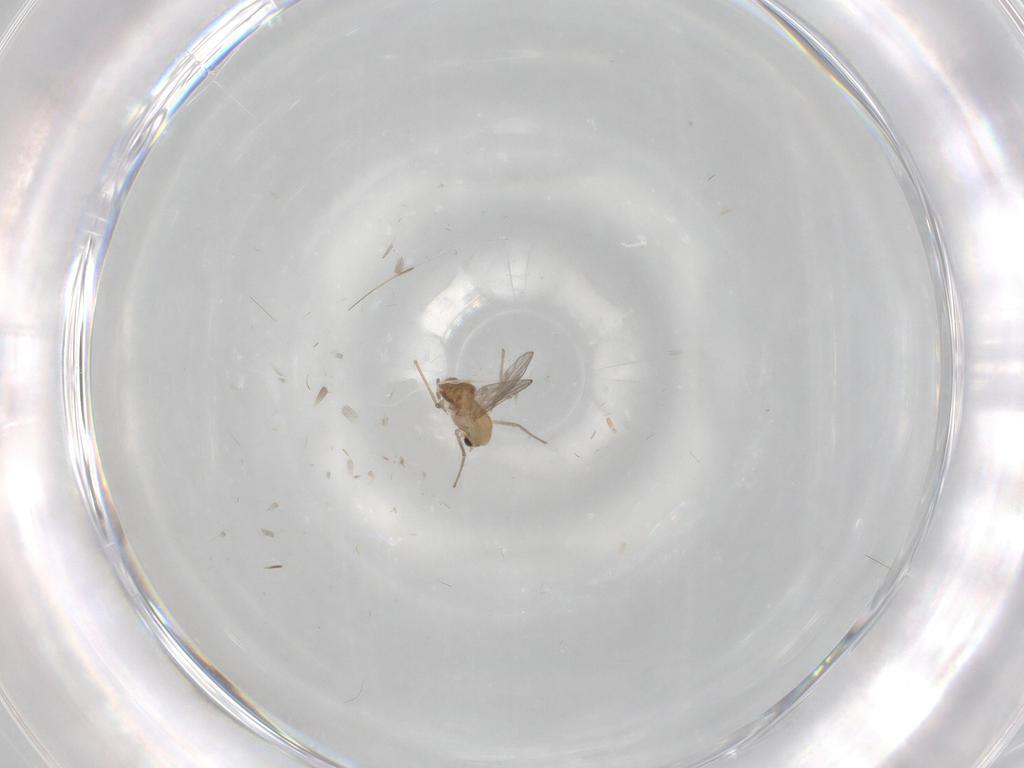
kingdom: Animalia
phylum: Arthropoda
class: Insecta
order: Diptera
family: Chironomidae
